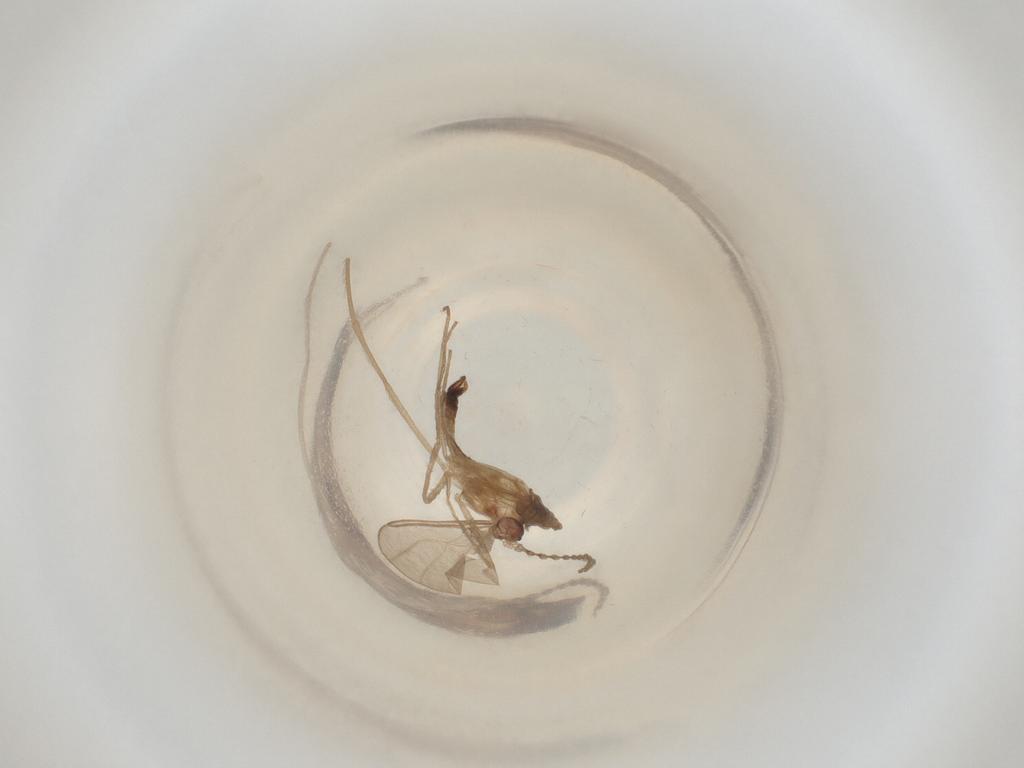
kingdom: Animalia
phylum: Arthropoda
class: Insecta
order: Diptera
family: Cecidomyiidae
